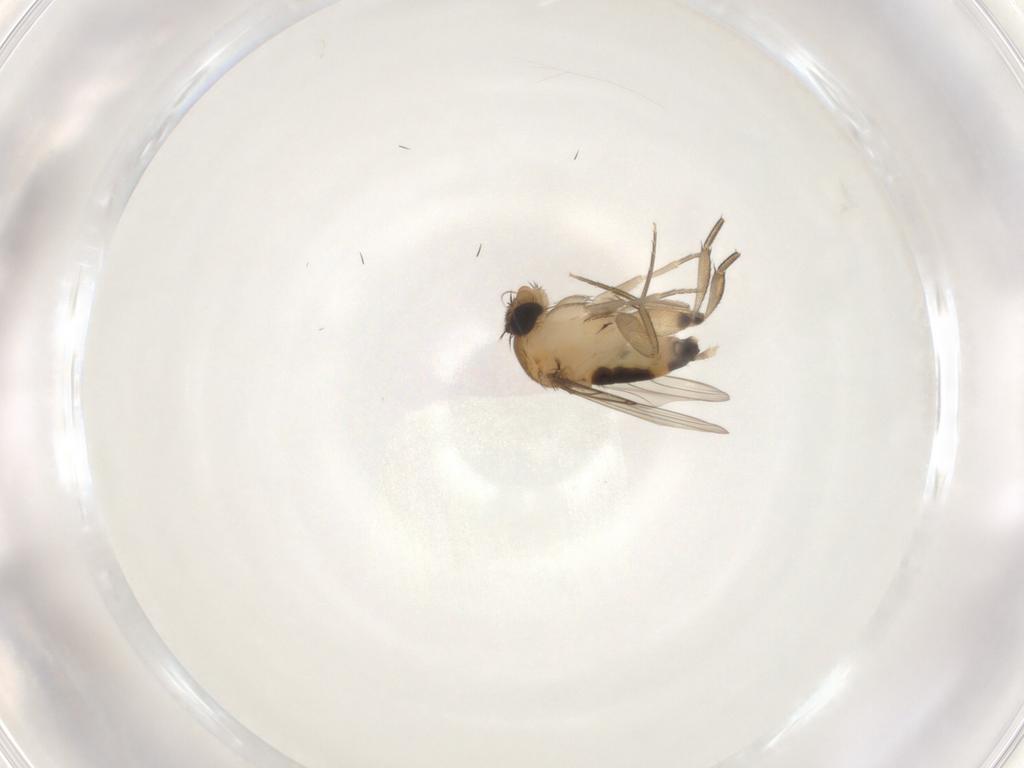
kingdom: Animalia
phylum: Arthropoda
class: Insecta
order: Diptera
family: Phoridae
